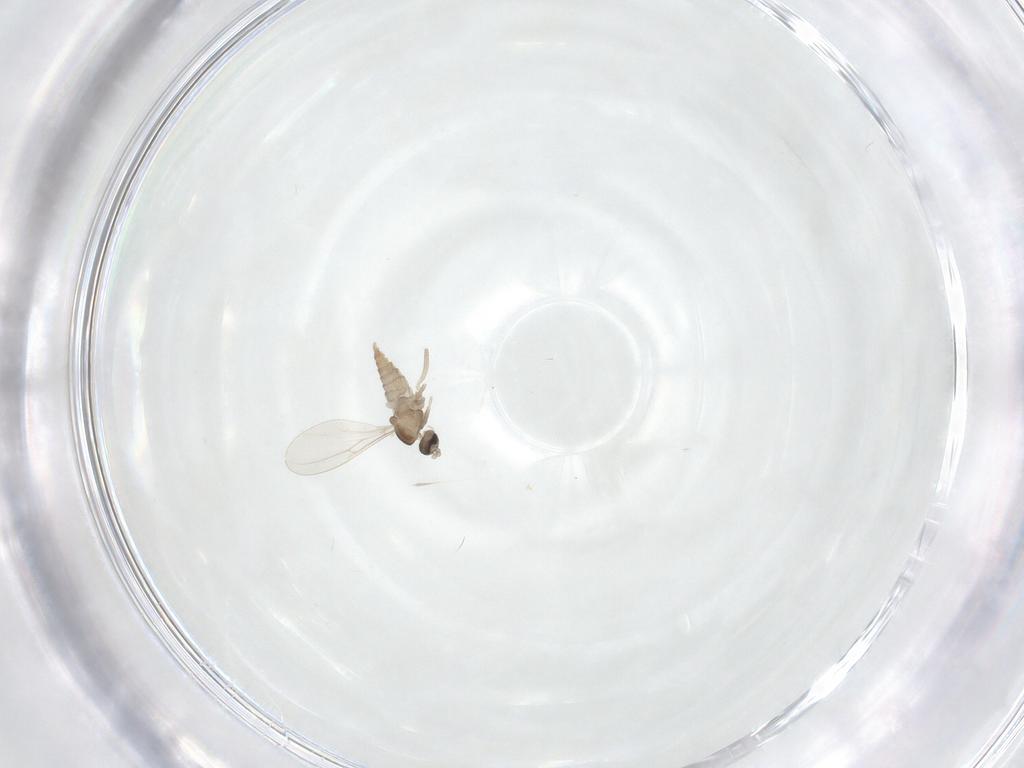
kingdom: Animalia
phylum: Arthropoda
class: Insecta
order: Diptera
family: Cecidomyiidae
